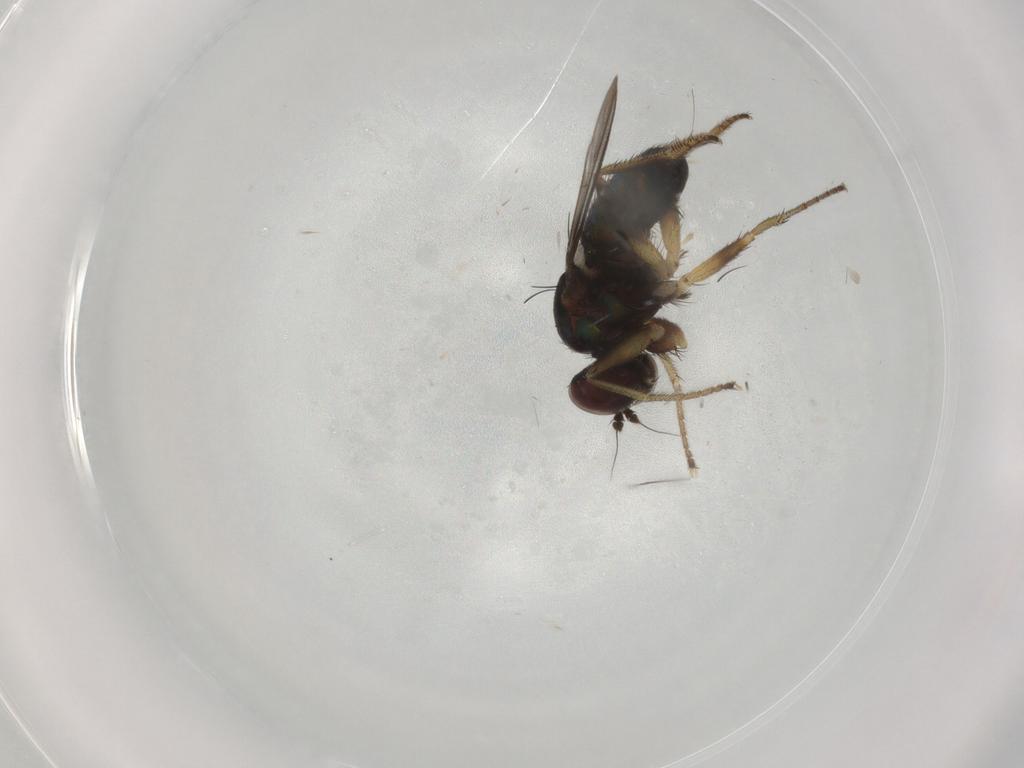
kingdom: Animalia
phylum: Arthropoda
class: Insecta
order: Diptera
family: Dolichopodidae
